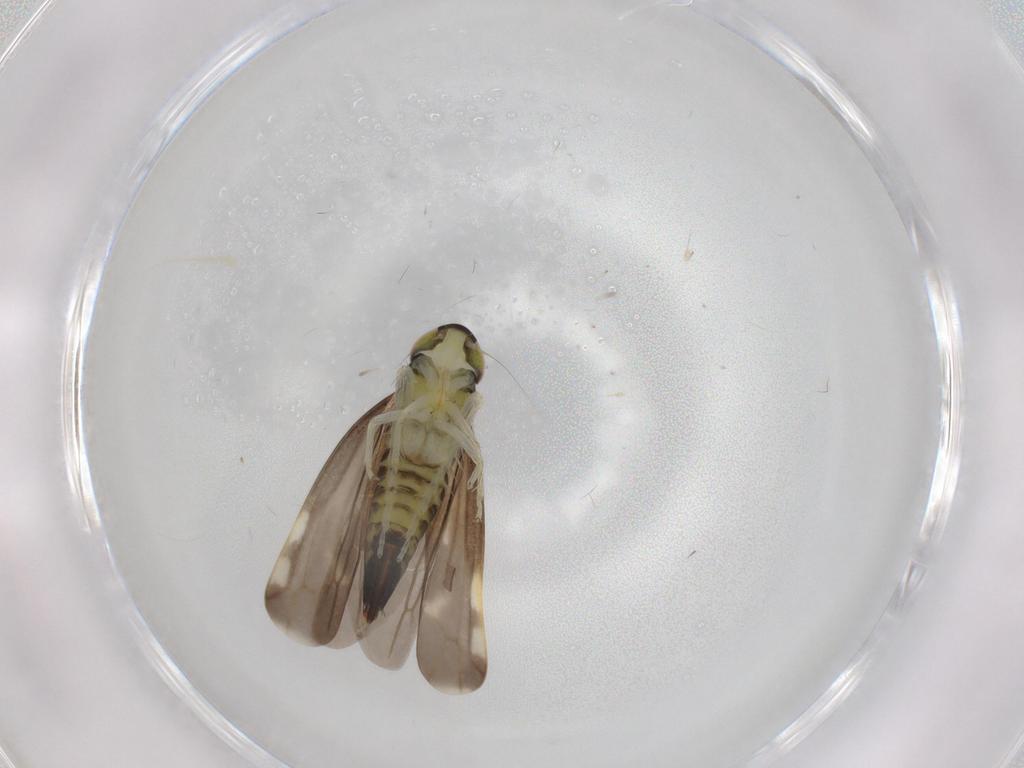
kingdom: Animalia
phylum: Arthropoda
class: Insecta
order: Hemiptera
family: Cicadellidae
